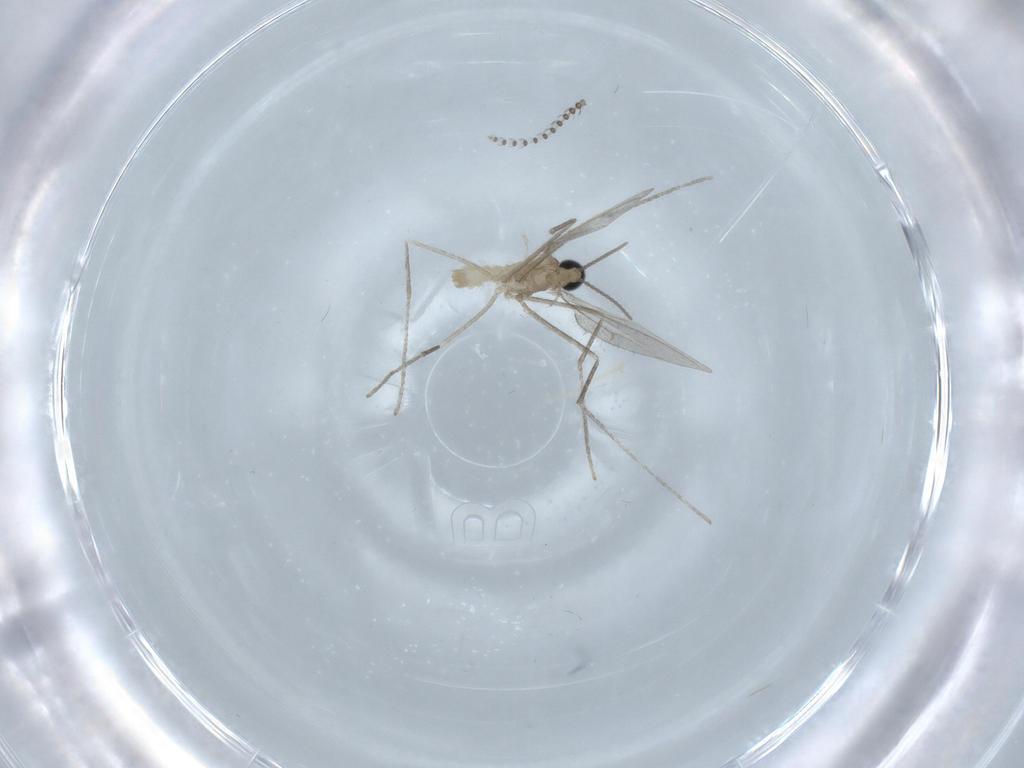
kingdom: Animalia
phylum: Arthropoda
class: Insecta
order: Diptera
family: Cecidomyiidae
